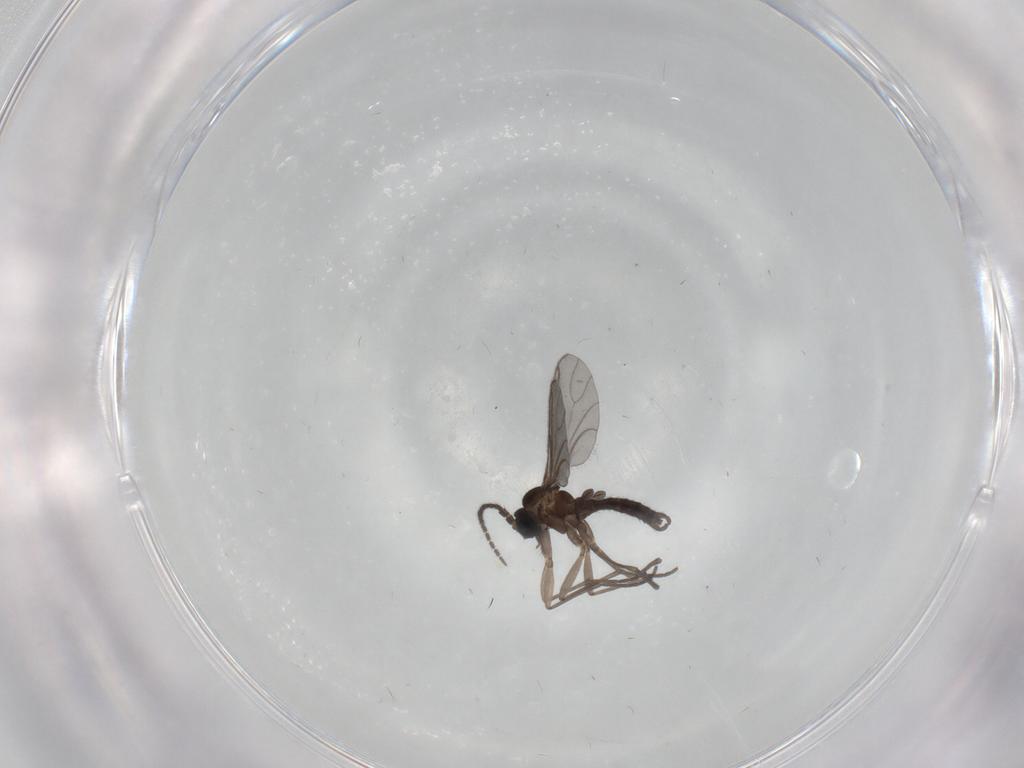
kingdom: Animalia
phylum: Arthropoda
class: Insecta
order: Diptera
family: Sciaridae
